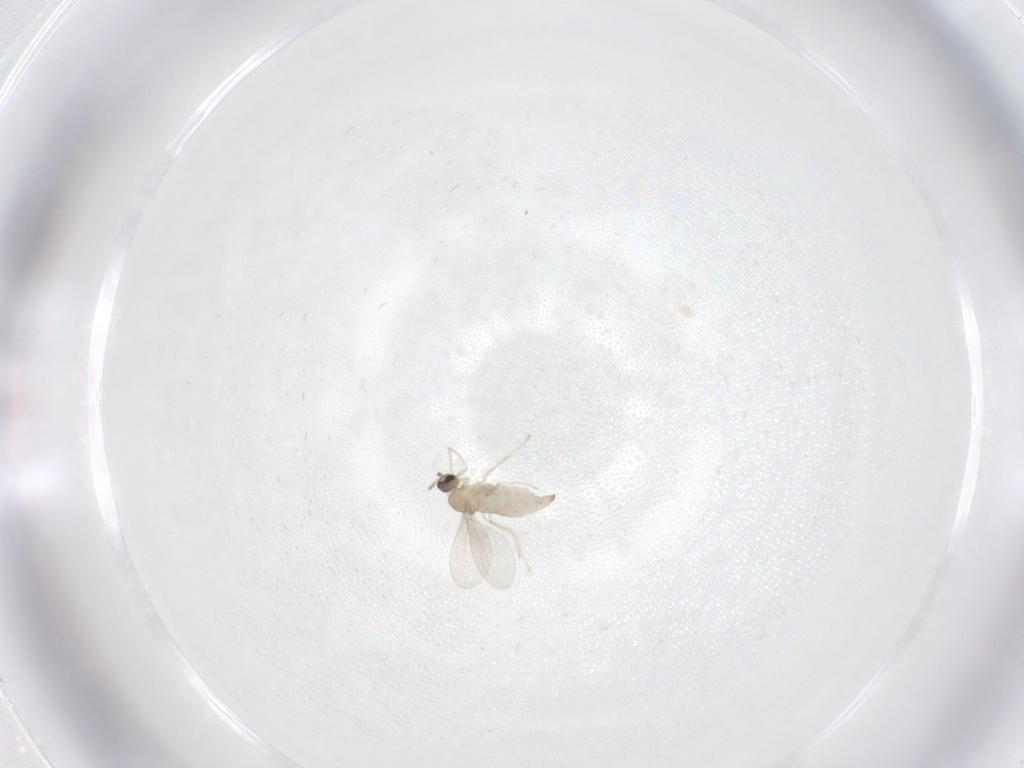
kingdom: Animalia
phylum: Arthropoda
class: Insecta
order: Diptera
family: Cecidomyiidae
